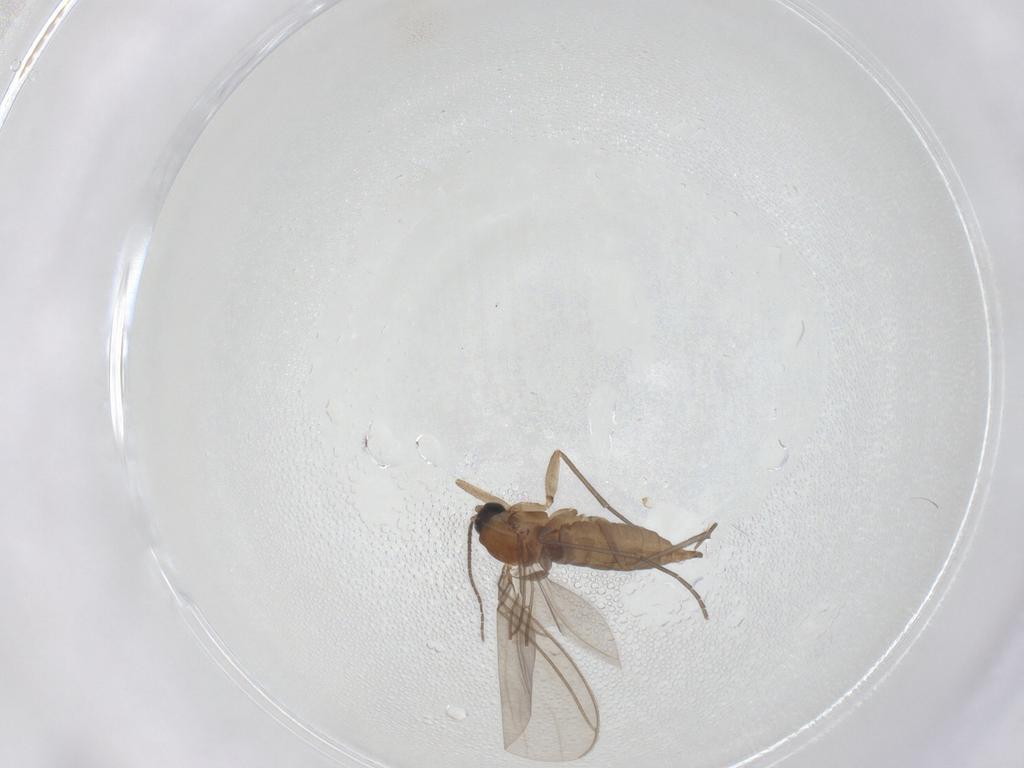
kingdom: Animalia
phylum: Arthropoda
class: Insecta
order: Diptera
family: Sciaridae
